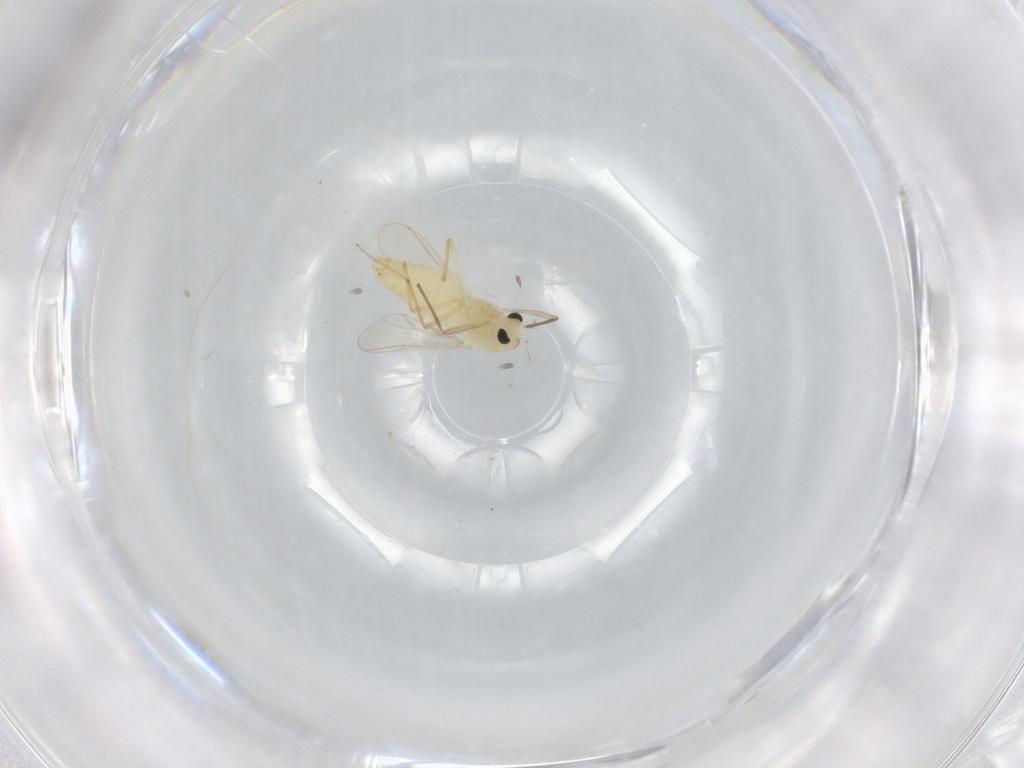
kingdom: Animalia
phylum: Arthropoda
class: Insecta
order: Diptera
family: Chironomidae
